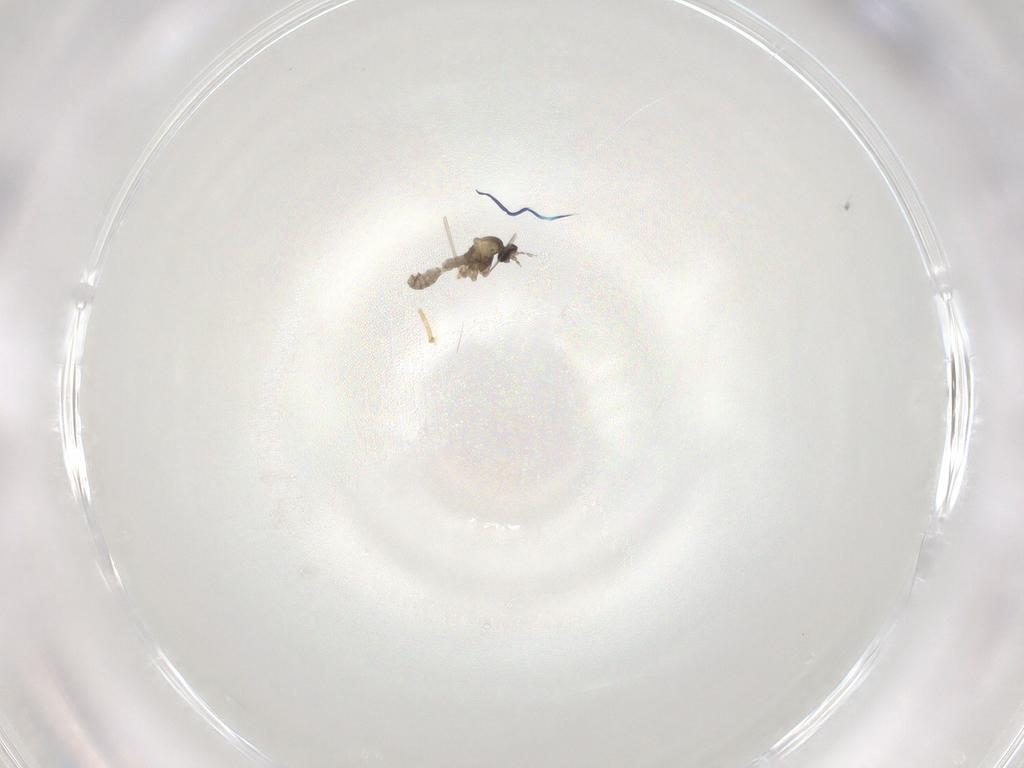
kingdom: Animalia
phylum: Arthropoda
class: Insecta
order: Diptera
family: Cecidomyiidae
